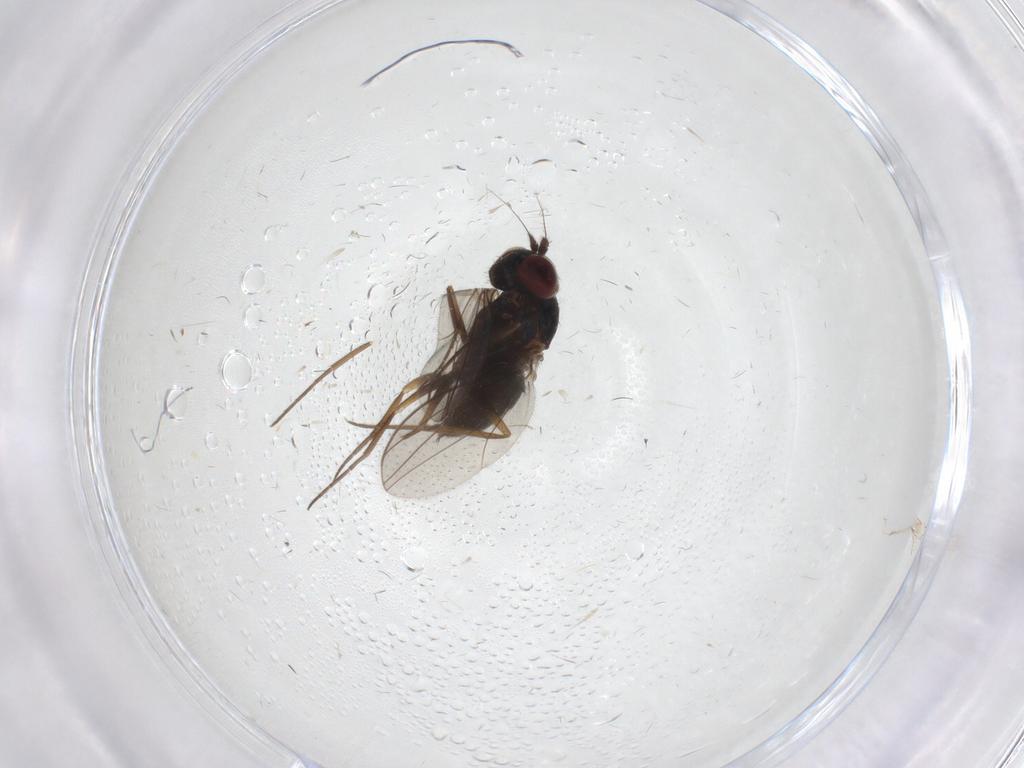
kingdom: Animalia
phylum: Arthropoda
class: Insecta
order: Diptera
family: Dolichopodidae
